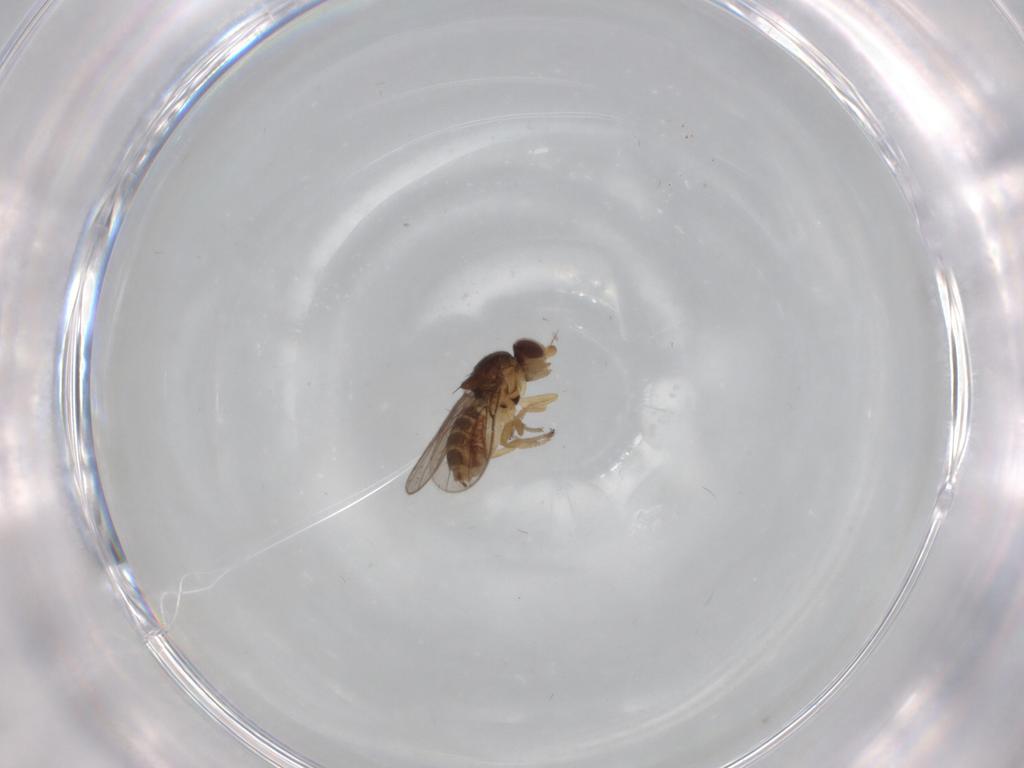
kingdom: Animalia
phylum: Arthropoda
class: Insecta
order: Diptera
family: Chloropidae
